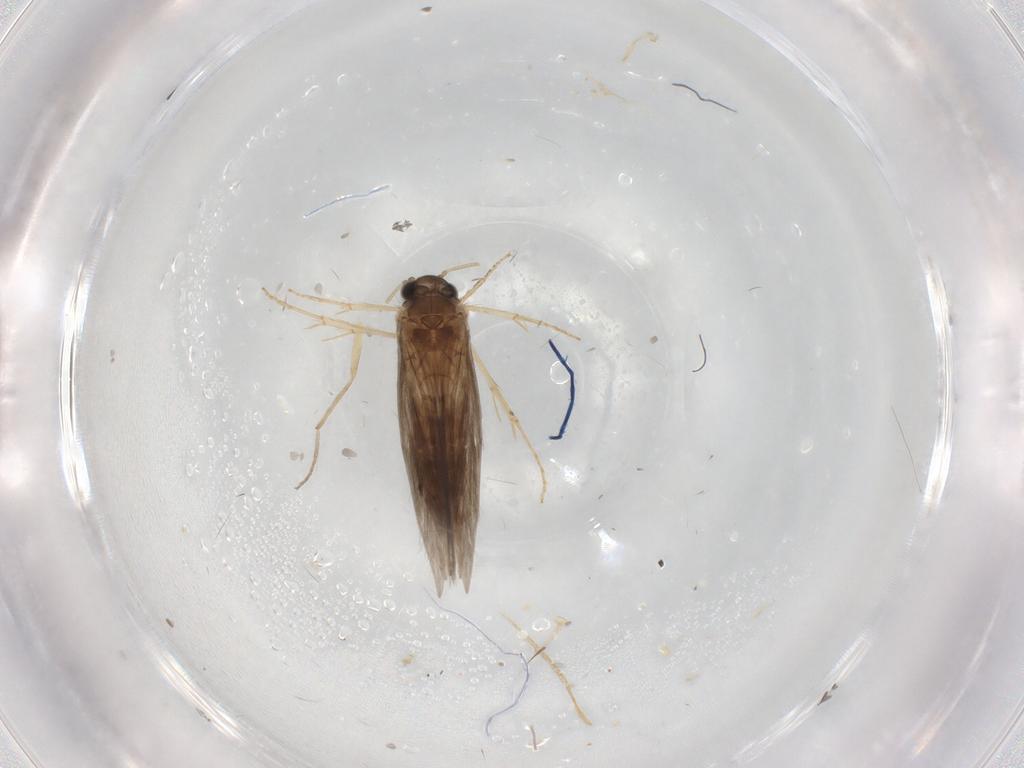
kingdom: Animalia
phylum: Arthropoda
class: Insecta
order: Trichoptera
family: Hydroptilidae
